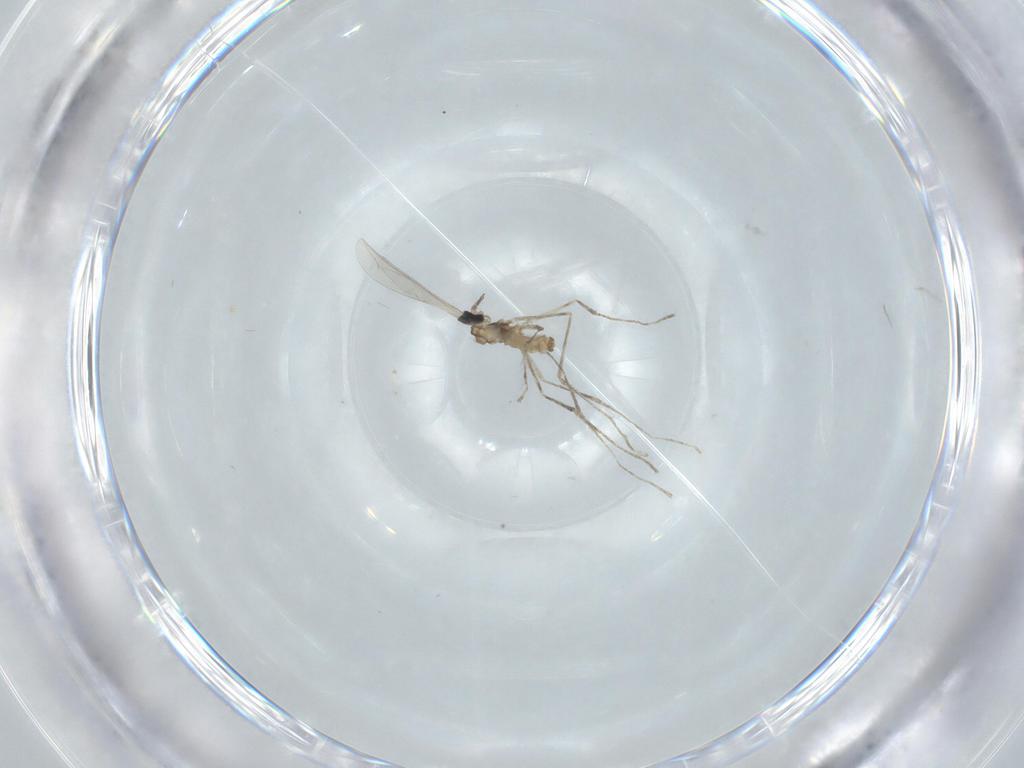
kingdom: Animalia
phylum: Arthropoda
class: Insecta
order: Diptera
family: Cecidomyiidae
